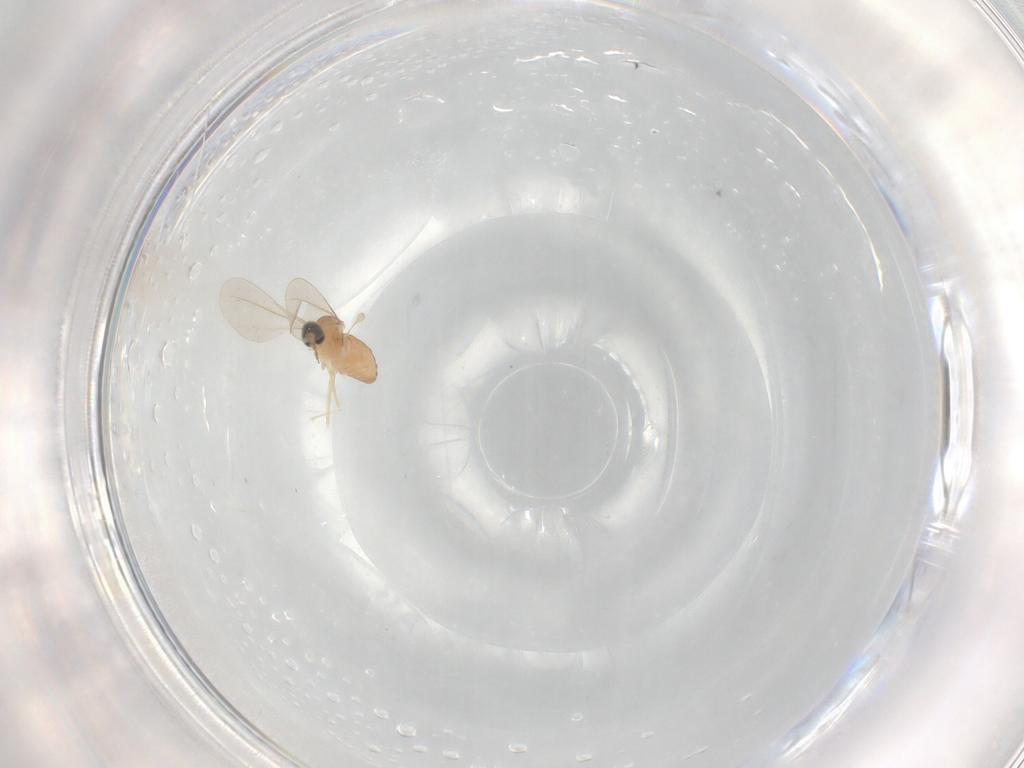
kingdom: Animalia
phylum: Arthropoda
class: Insecta
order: Diptera
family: Cecidomyiidae
